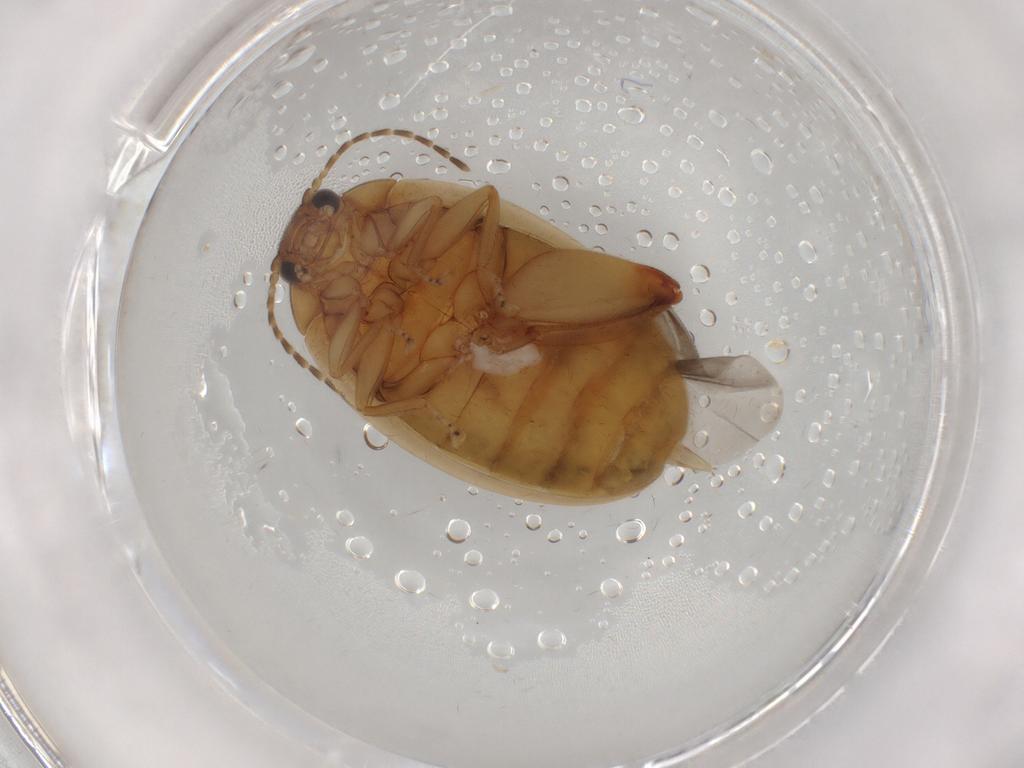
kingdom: Animalia
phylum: Arthropoda
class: Insecta
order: Coleoptera
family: Scirtidae
